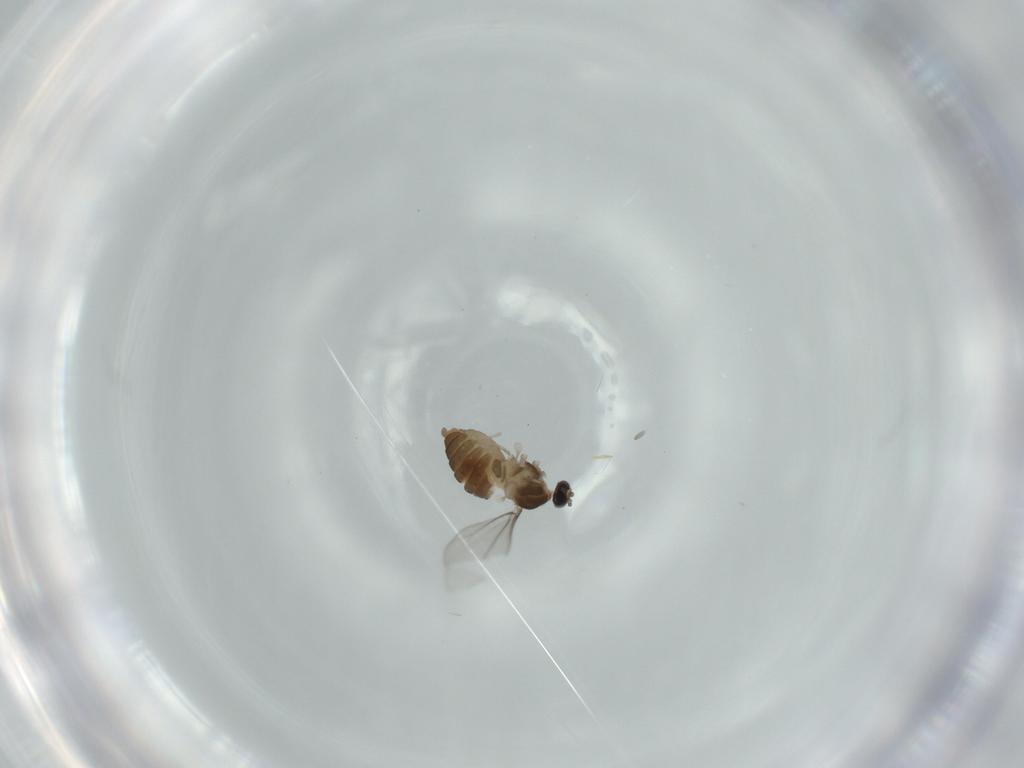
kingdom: Animalia
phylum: Arthropoda
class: Insecta
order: Diptera
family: Cecidomyiidae
